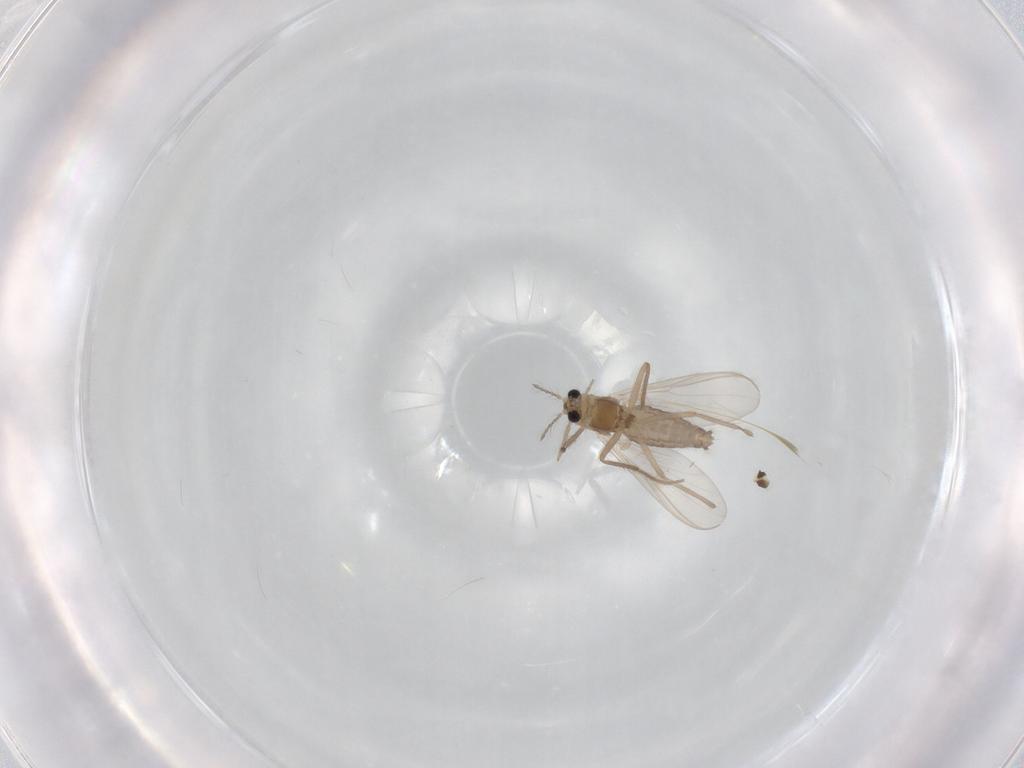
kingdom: Animalia
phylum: Arthropoda
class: Insecta
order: Diptera
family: Chironomidae
